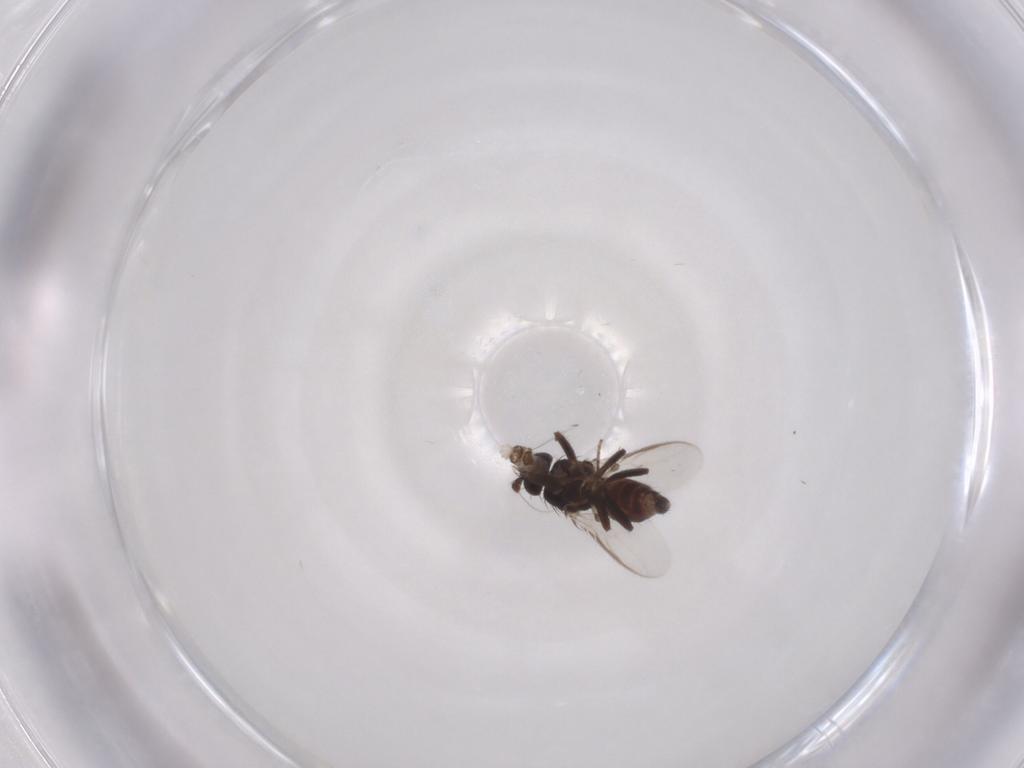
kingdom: Animalia
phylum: Arthropoda
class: Insecta
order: Diptera
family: Sphaeroceridae
